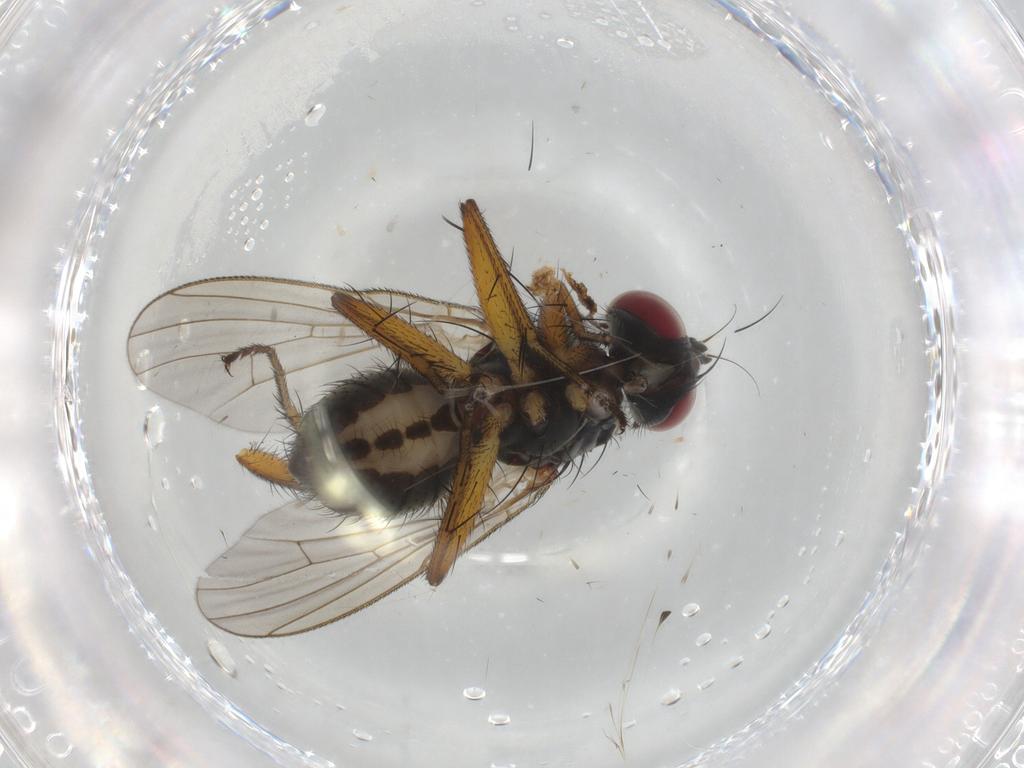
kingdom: Animalia
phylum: Arthropoda
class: Insecta
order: Diptera
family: Muscidae
